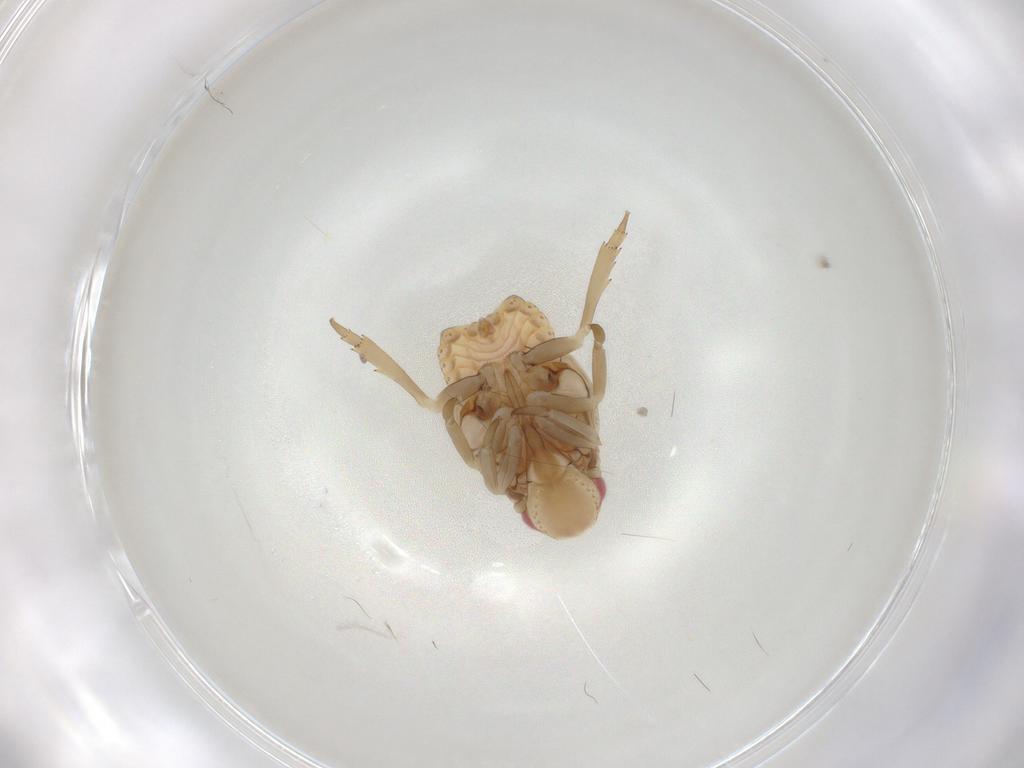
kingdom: Animalia
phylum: Arthropoda
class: Insecta
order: Hemiptera
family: Flatidae
